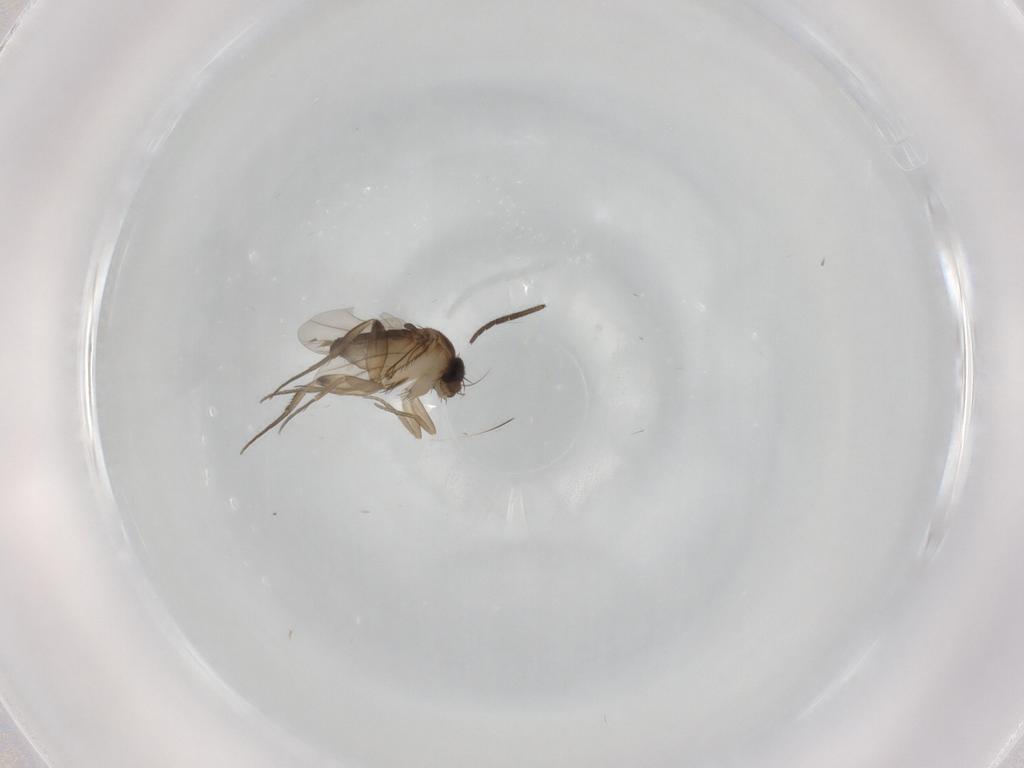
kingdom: Animalia
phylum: Arthropoda
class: Insecta
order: Diptera
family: Phoridae
